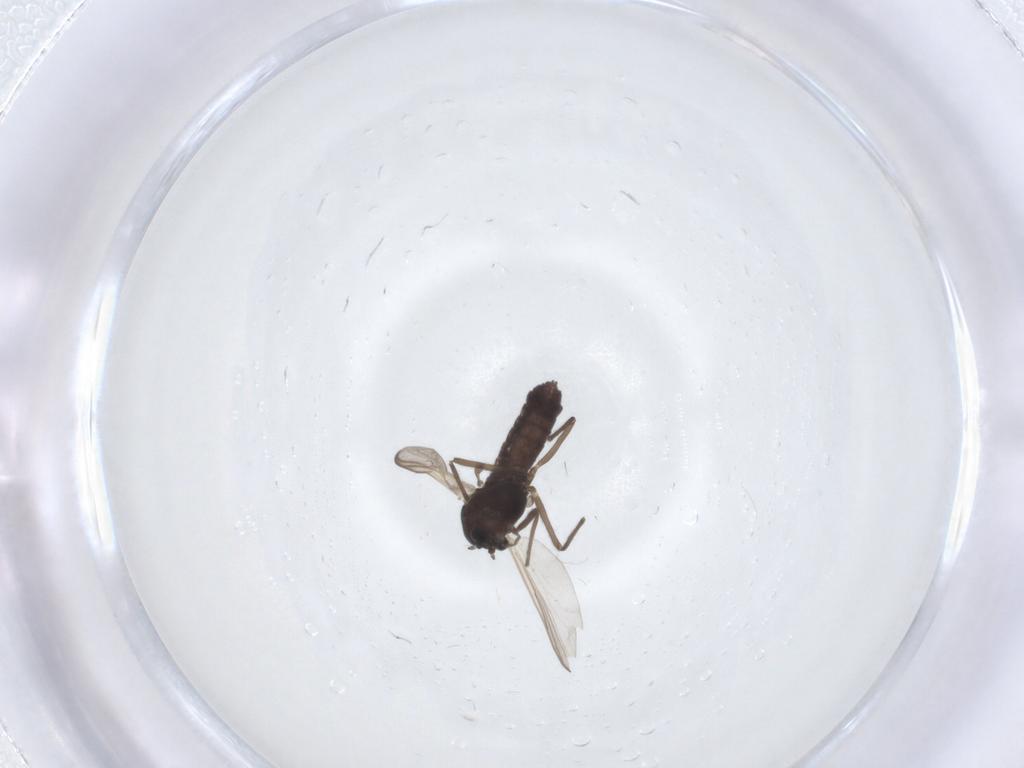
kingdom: Animalia
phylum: Arthropoda
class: Insecta
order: Diptera
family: Chironomidae
